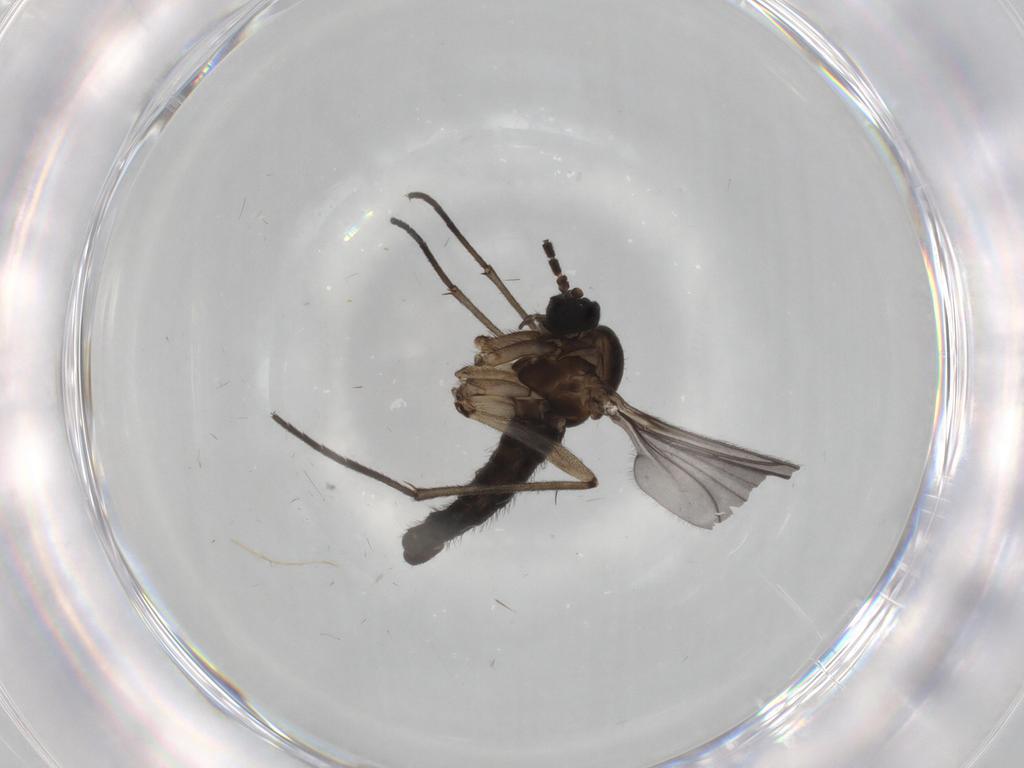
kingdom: Animalia
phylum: Arthropoda
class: Insecta
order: Diptera
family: Sciaridae
